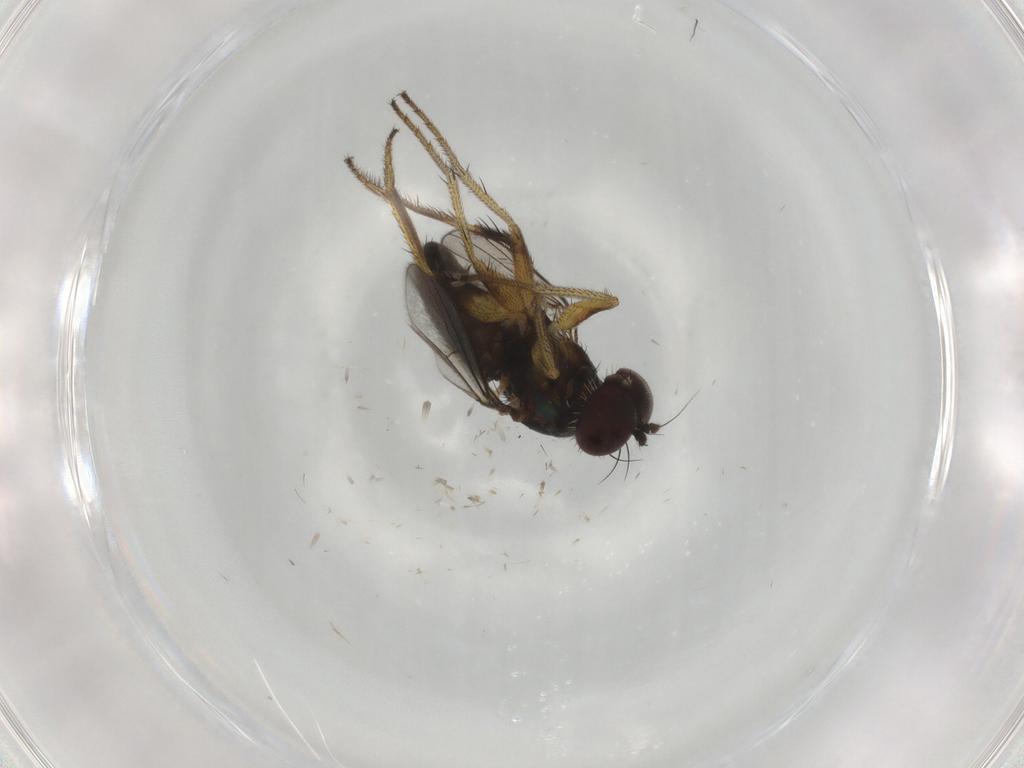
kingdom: Animalia
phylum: Arthropoda
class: Insecta
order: Diptera
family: Dolichopodidae
